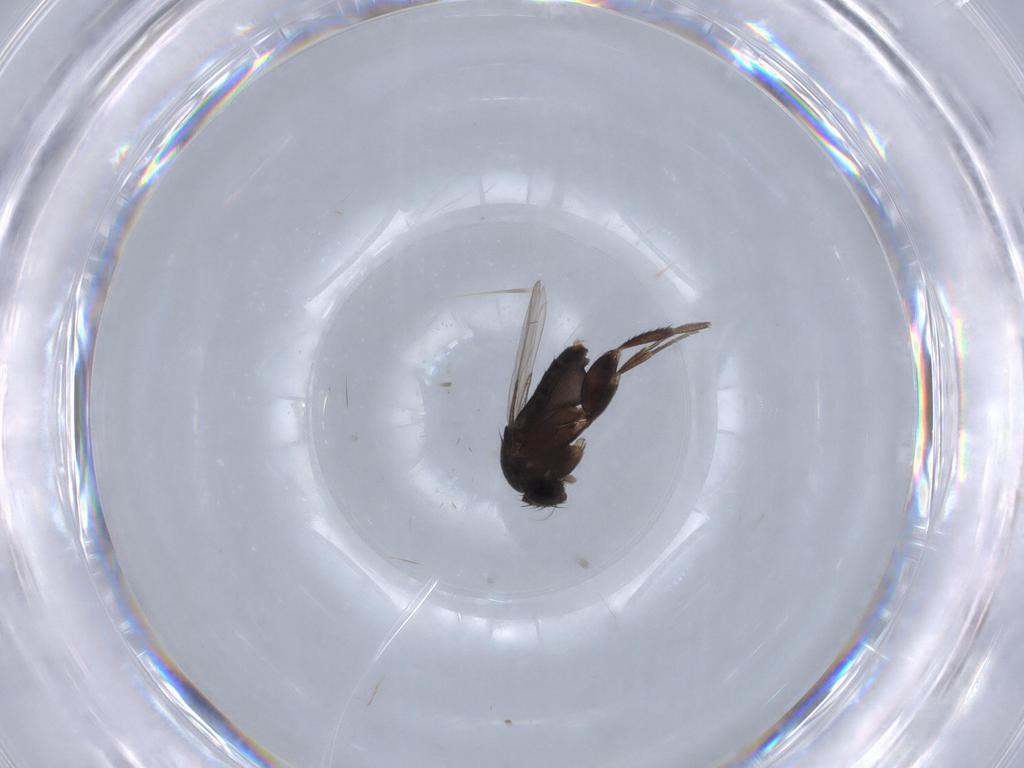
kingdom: Animalia
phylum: Arthropoda
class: Insecta
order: Diptera
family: Phoridae
